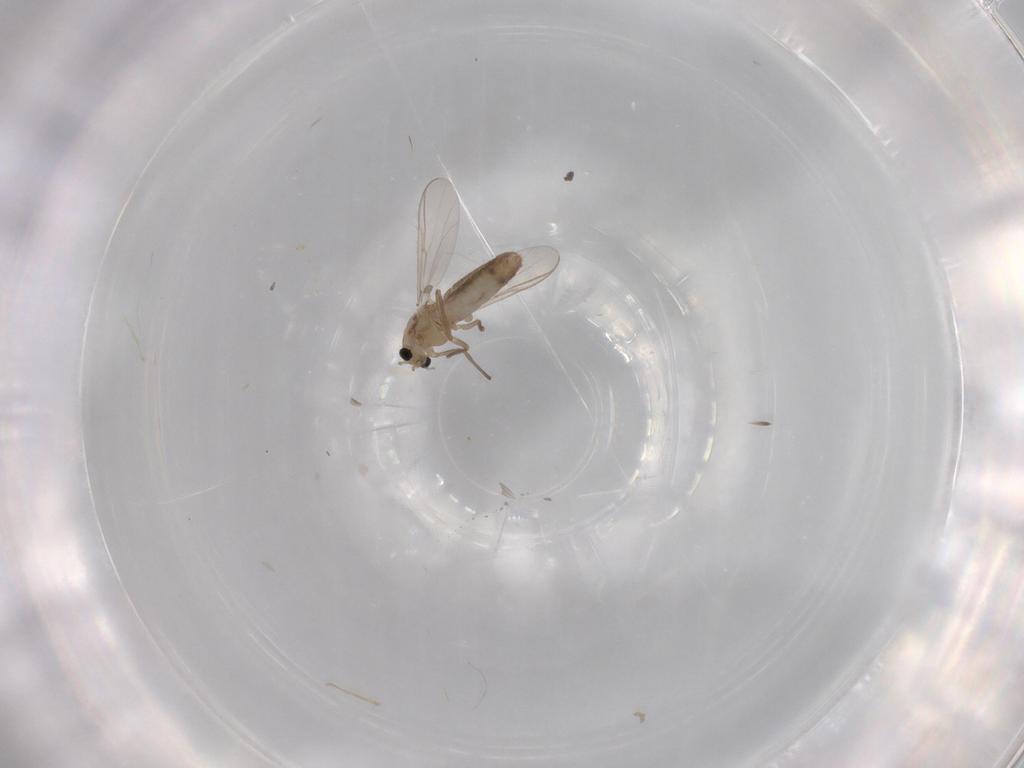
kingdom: Animalia
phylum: Arthropoda
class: Insecta
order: Diptera
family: Chironomidae
